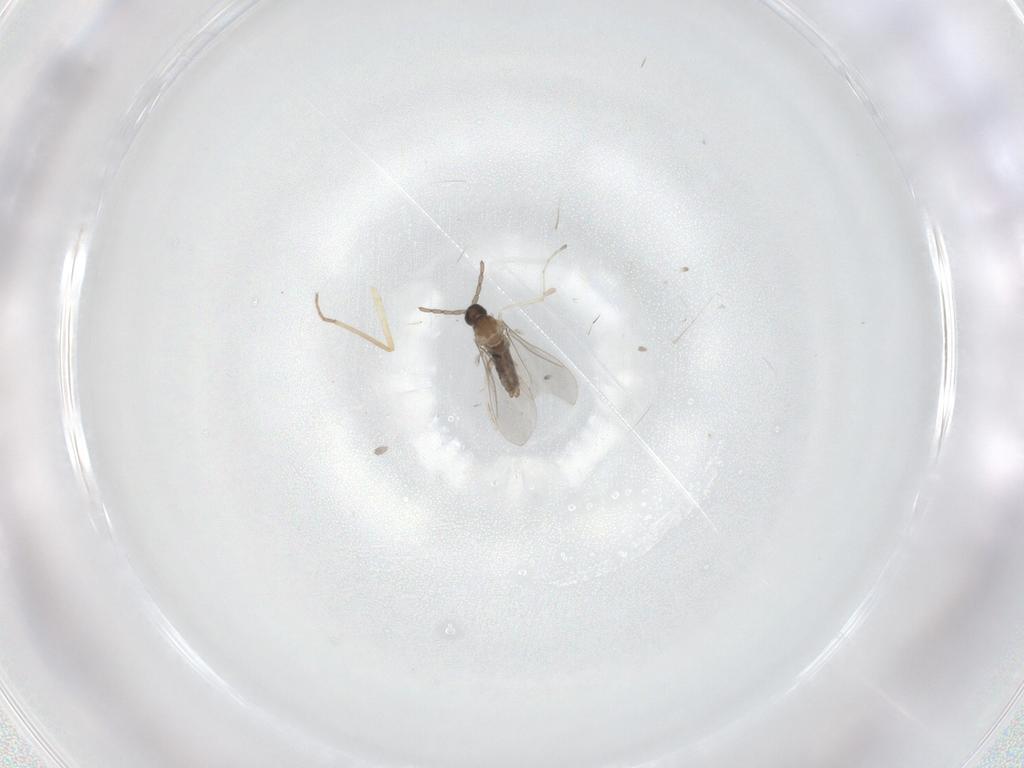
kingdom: Animalia
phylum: Arthropoda
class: Insecta
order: Diptera
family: Cecidomyiidae
